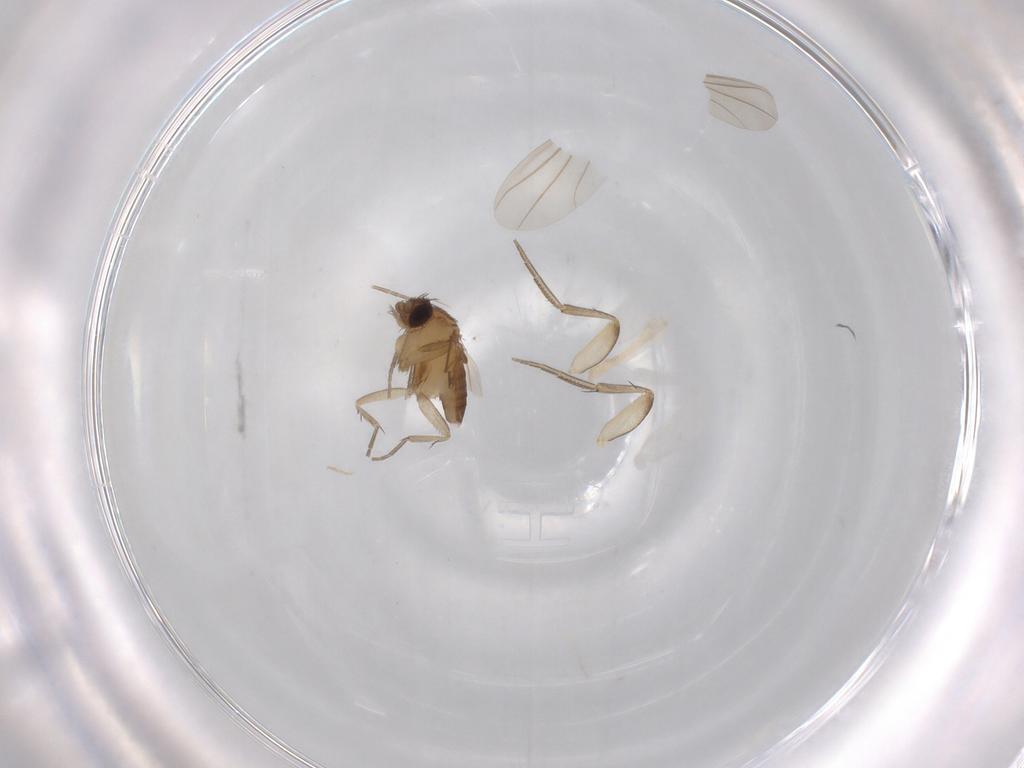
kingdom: Animalia
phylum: Arthropoda
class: Insecta
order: Diptera
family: Phoridae
